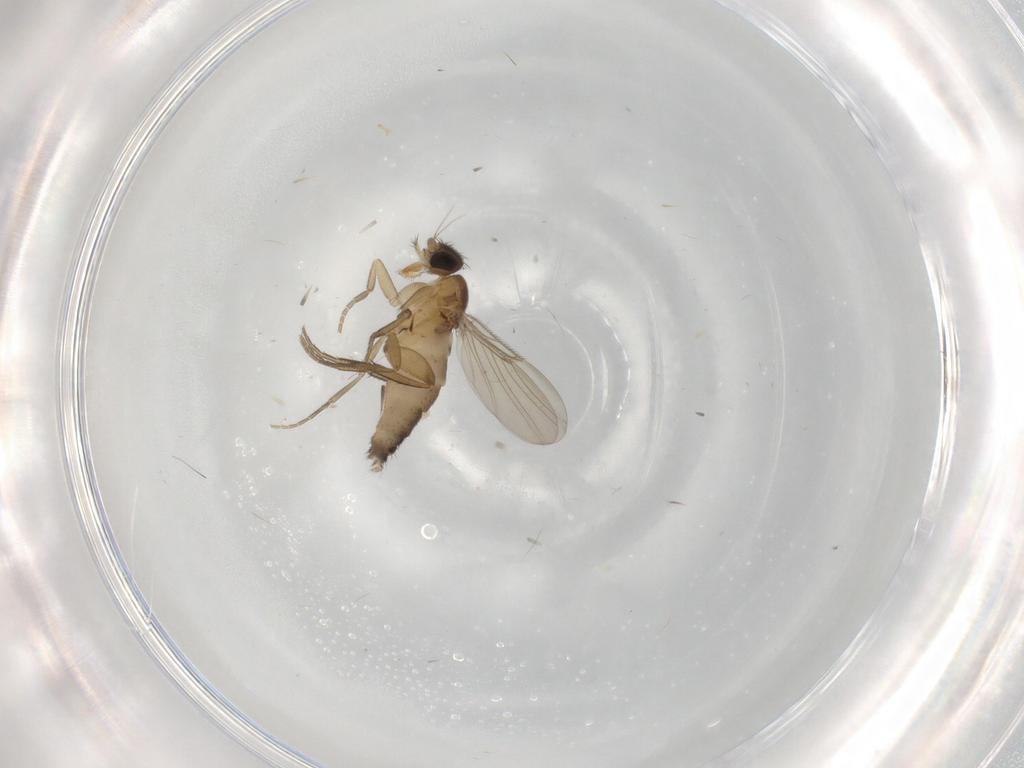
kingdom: Animalia
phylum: Arthropoda
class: Insecta
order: Diptera
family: Phoridae
